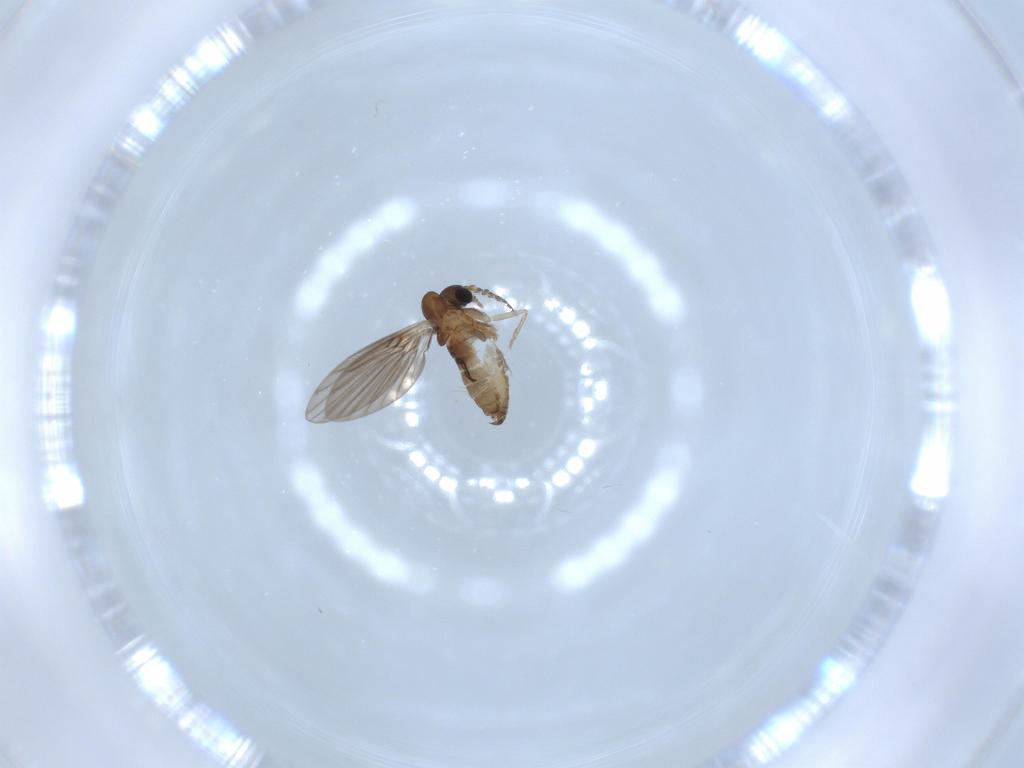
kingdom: Animalia
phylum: Arthropoda
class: Insecta
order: Diptera
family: Psychodidae
